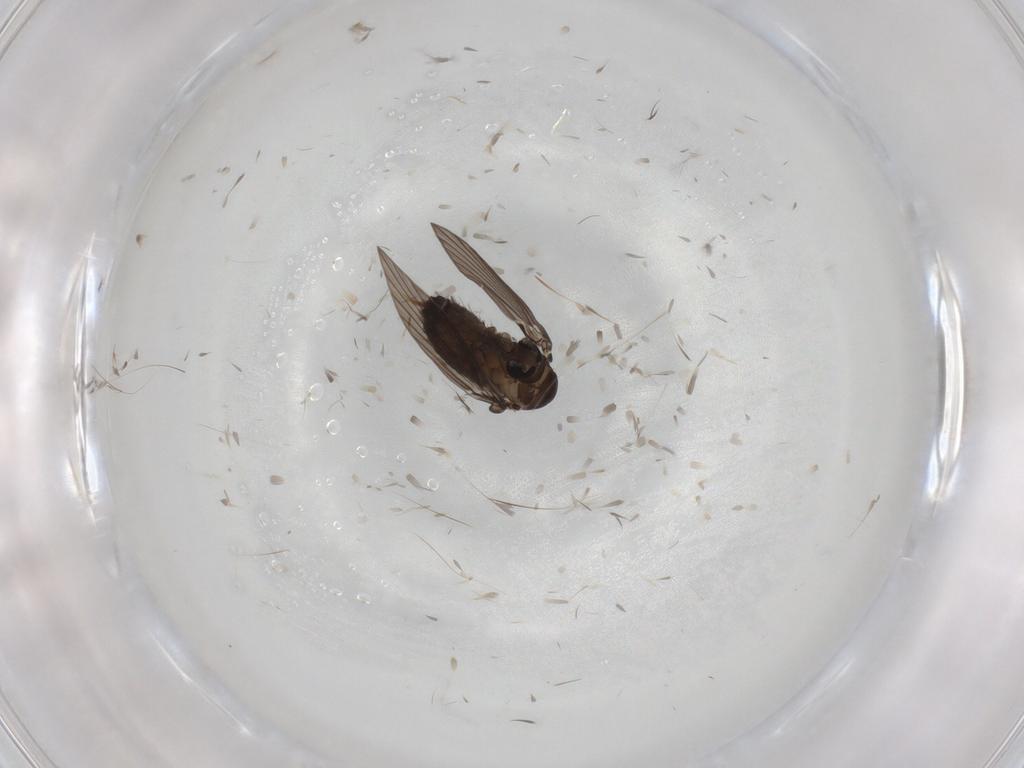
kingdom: Animalia
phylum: Arthropoda
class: Insecta
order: Diptera
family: Psychodidae
